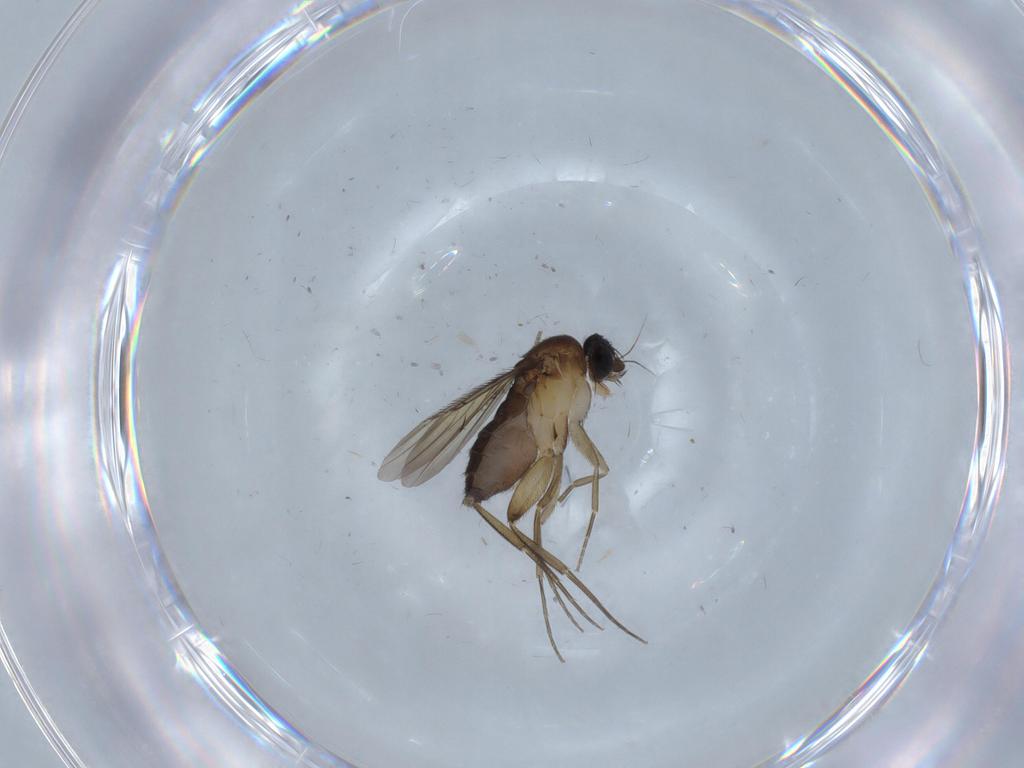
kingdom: Animalia
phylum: Arthropoda
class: Insecta
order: Diptera
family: Phoridae
